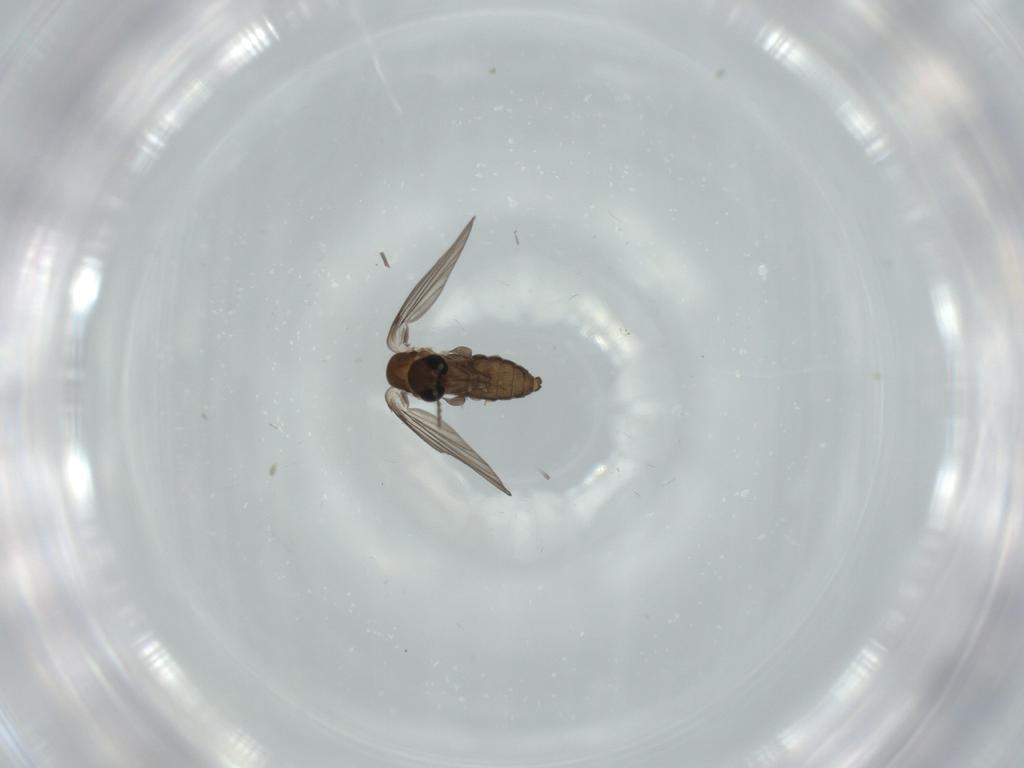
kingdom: Animalia
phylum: Arthropoda
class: Insecta
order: Diptera
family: Psychodidae
